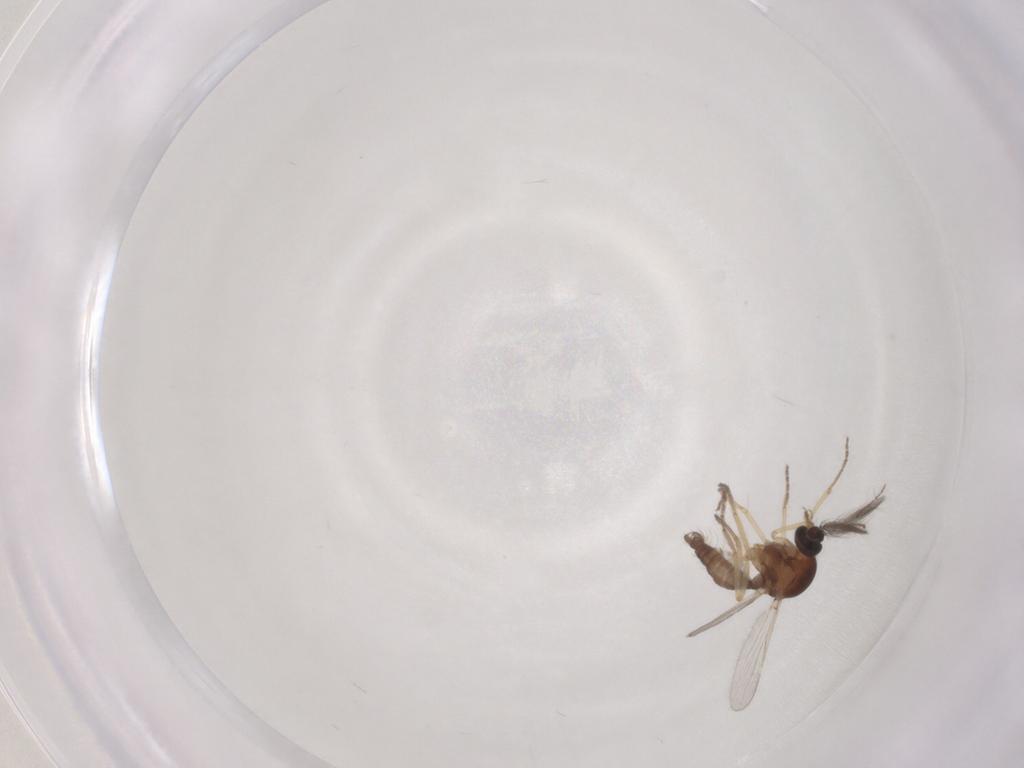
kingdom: Animalia
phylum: Arthropoda
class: Insecta
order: Diptera
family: Ceratopogonidae
